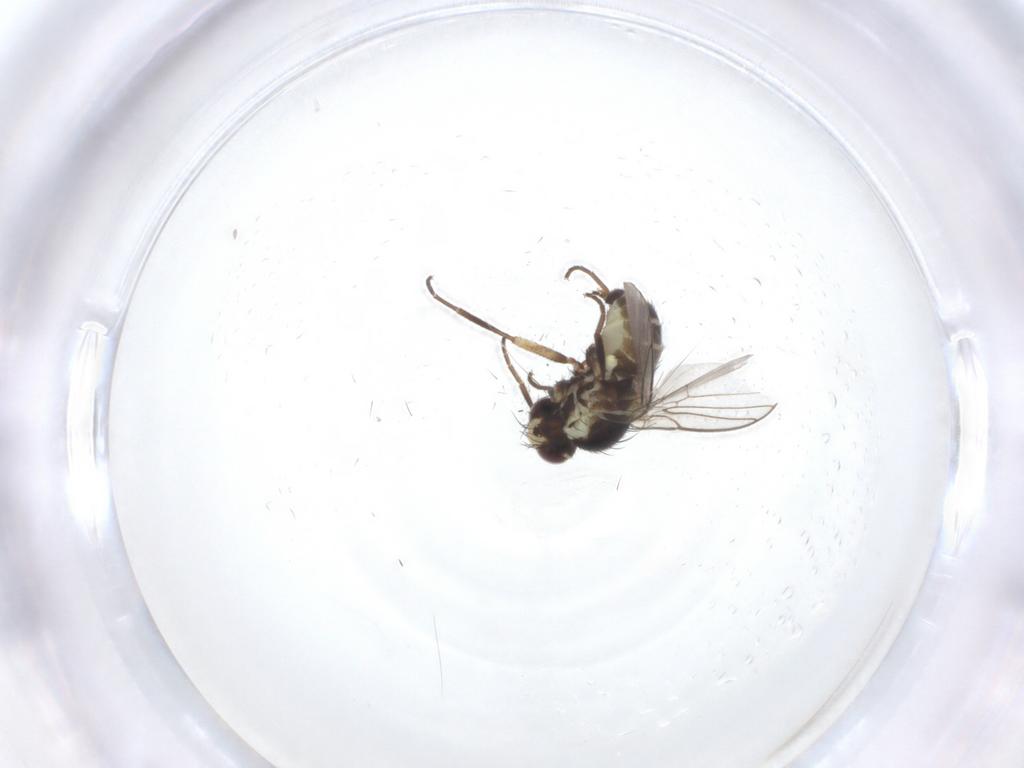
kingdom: Animalia
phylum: Arthropoda
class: Insecta
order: Diptera
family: Agromyzidae
